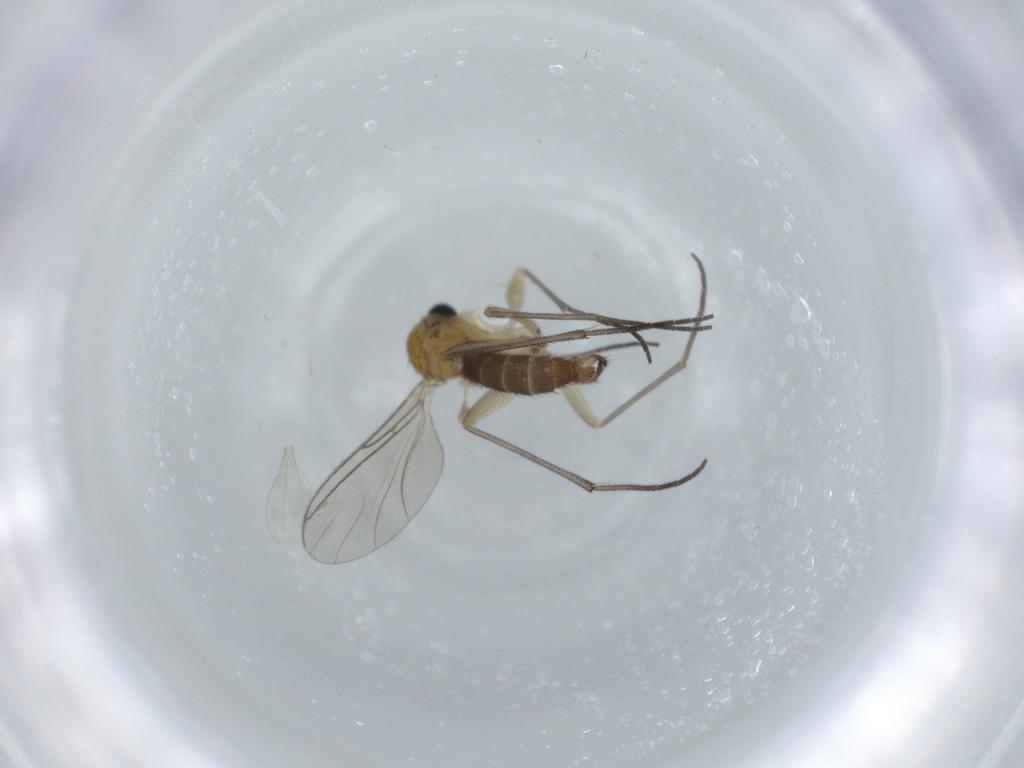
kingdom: Animalia
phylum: Arthropoda
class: Insecta
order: Diptera
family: Sciaridae
